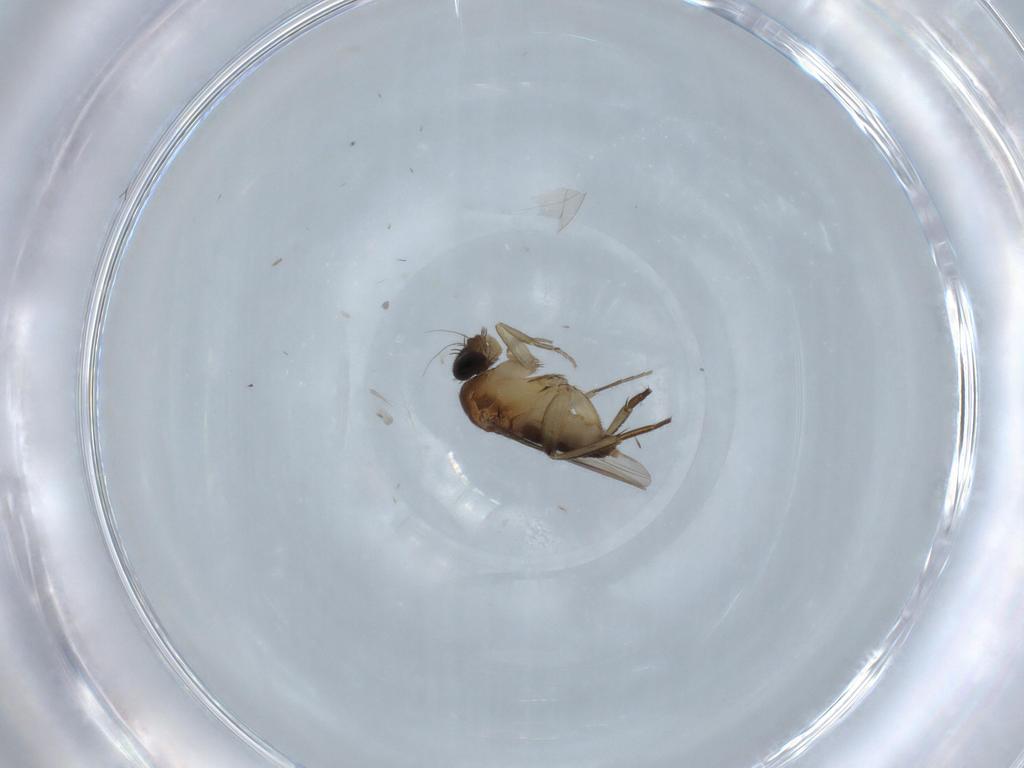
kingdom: Animalia
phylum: Arthropoda
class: Insecta
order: Diptera
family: Phoridae
